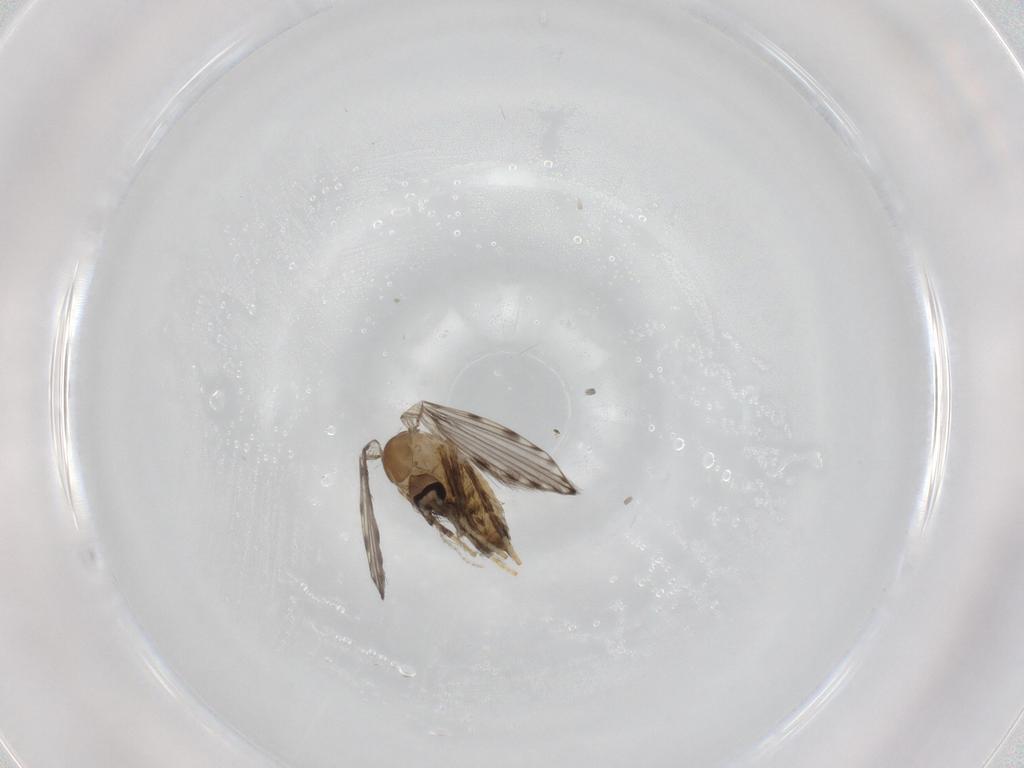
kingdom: Animalia
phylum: Arthropoda
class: Insecta
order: Diptera
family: Psychodidae
